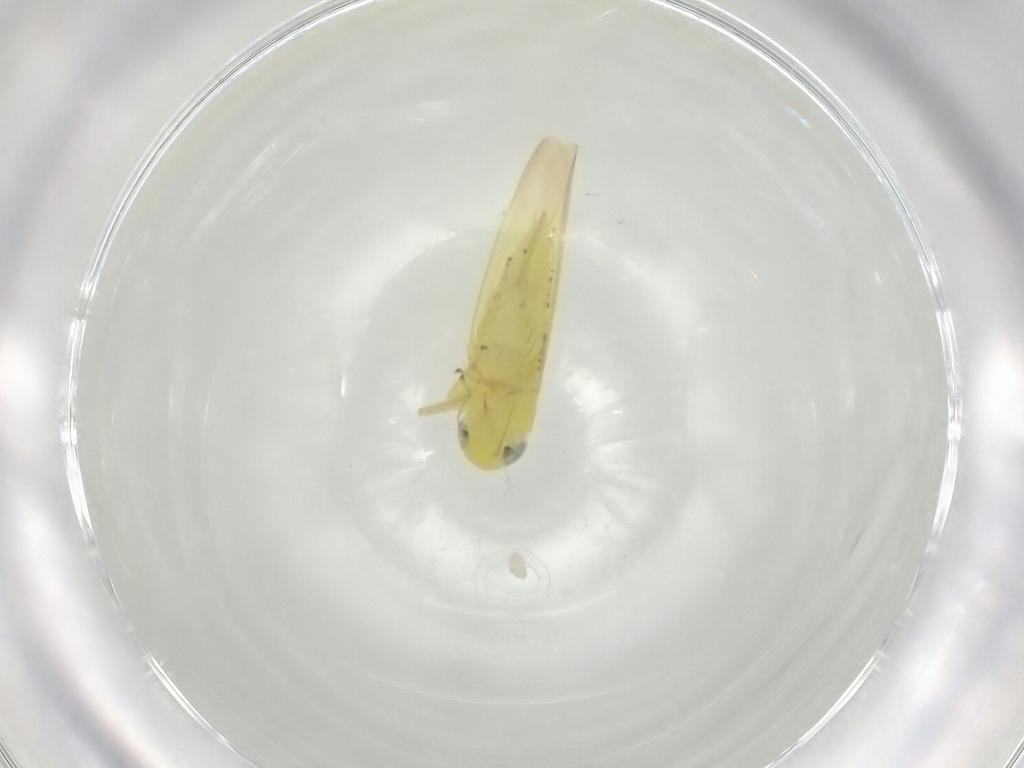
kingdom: Animalia
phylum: Arthropoda
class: Insecta
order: Hemiptera
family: Cicadellidae
